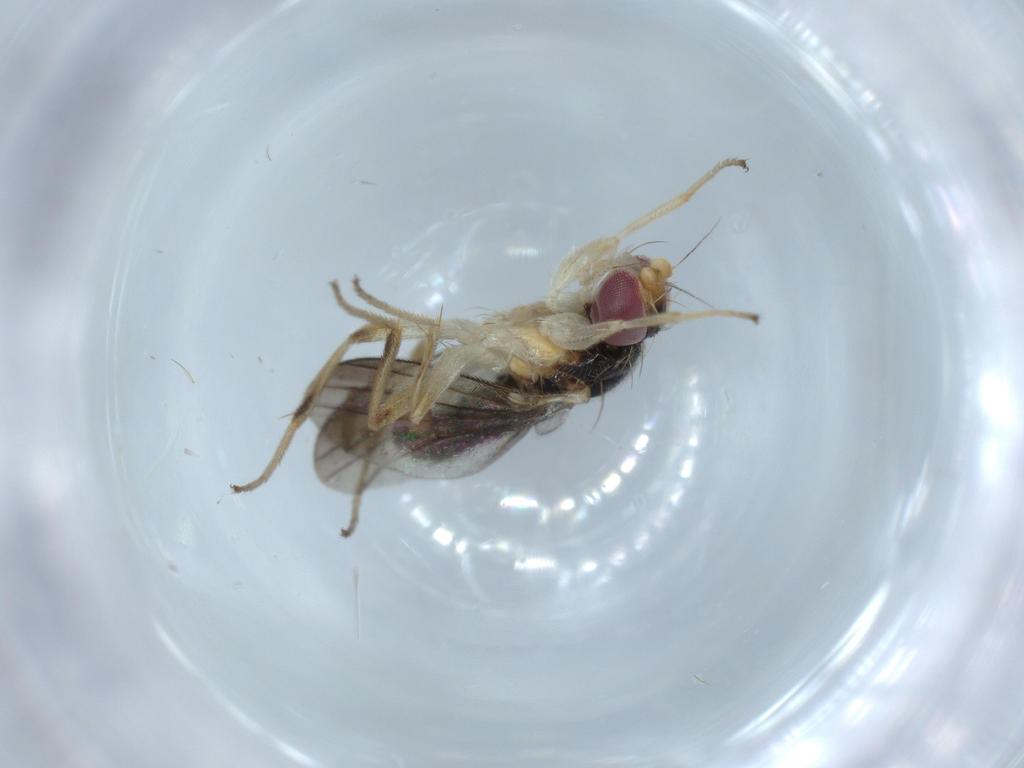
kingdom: Animalia
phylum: Arthropoda
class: Insecta
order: Diptera
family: Clusiidae
